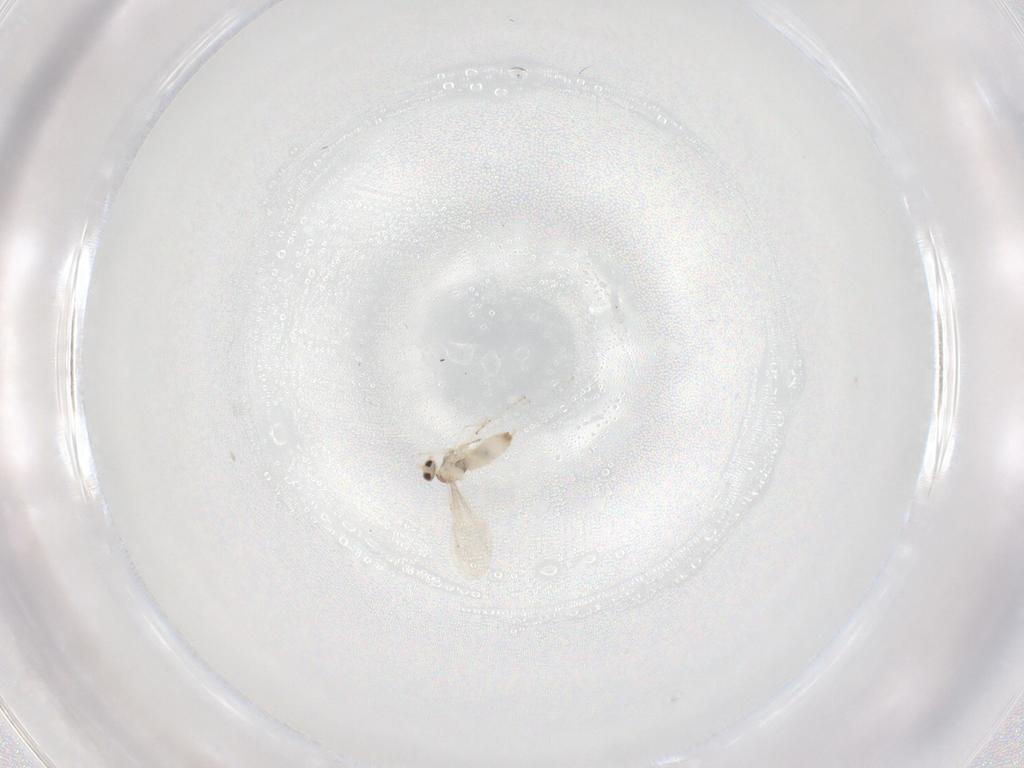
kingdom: Animalia
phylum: Arthropoda
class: Insecta
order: Diptera
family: Cecidomyiidae
